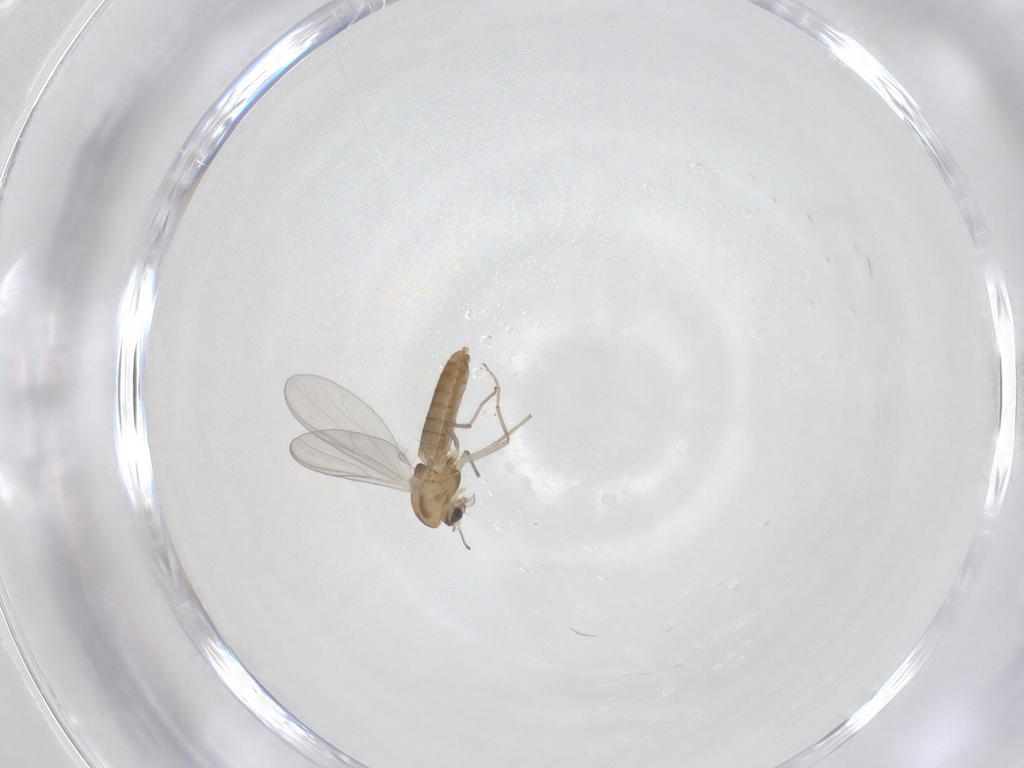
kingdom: Animalia
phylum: Arthropoda
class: Insecta
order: Diptera
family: Chironomidae
